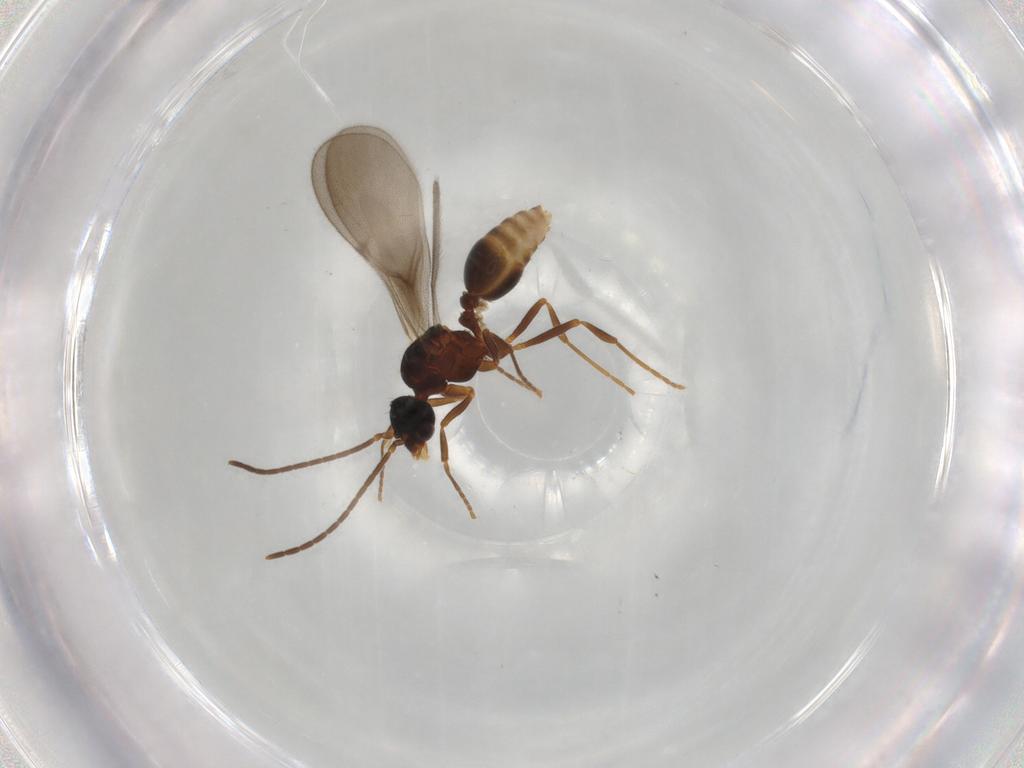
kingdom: Animalia
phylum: Arthropoda
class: Insecta
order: Hymenoptera
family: Formicidae
